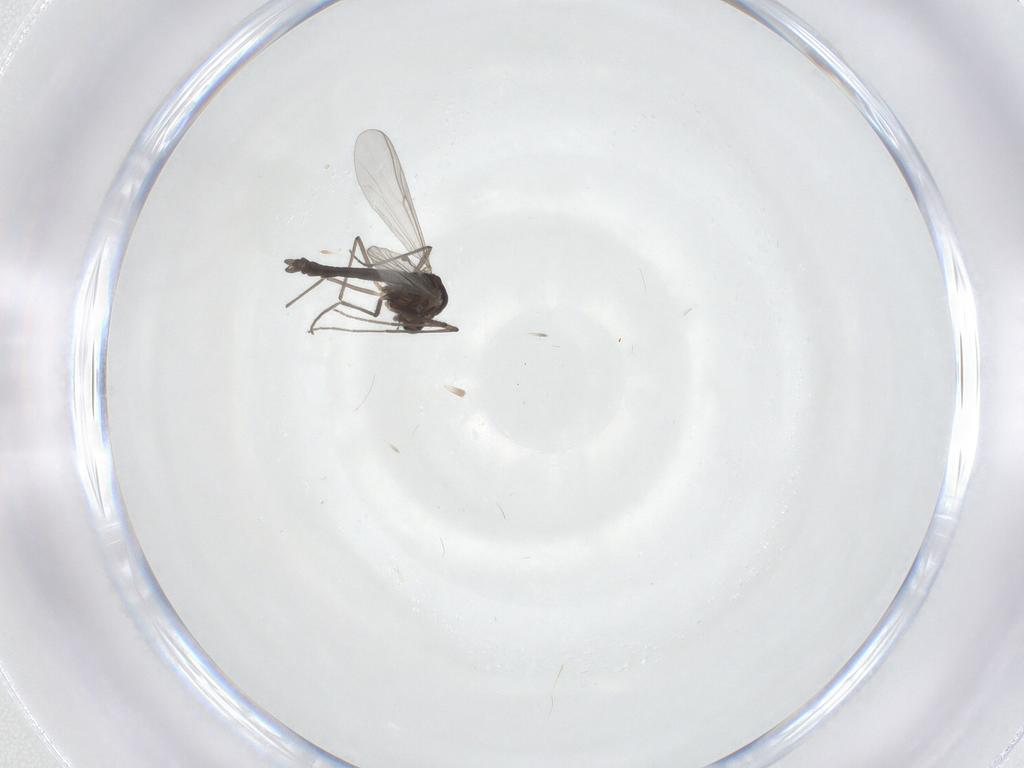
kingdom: Animalia
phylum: Arthropoda
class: Insecta
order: Diptera
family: Chironomidae
